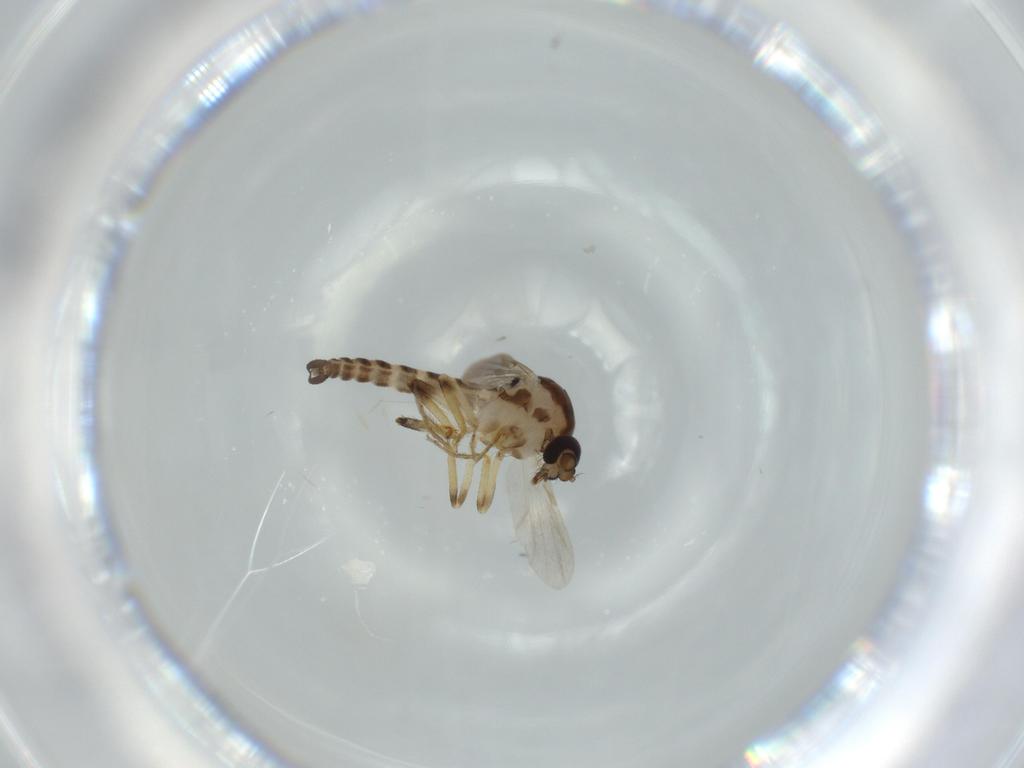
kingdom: Animalia
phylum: Arthropoda
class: Insecta
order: Diptera
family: Ceratopogonidae
